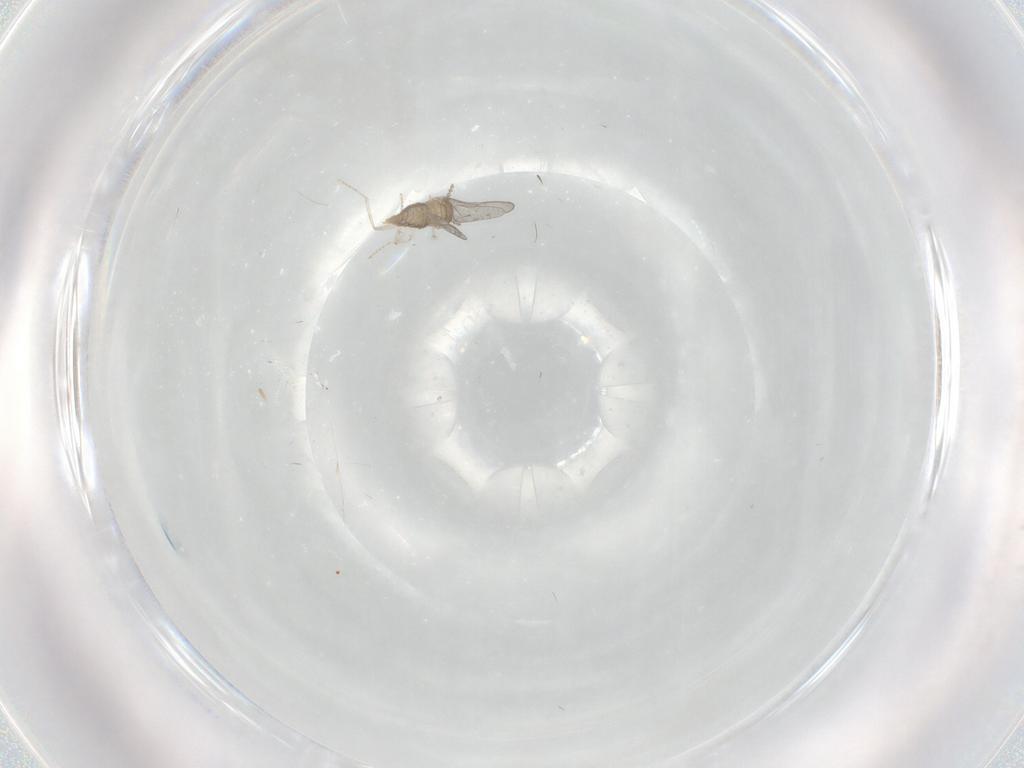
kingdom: Animalia
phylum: Arthropoda
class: Insecta
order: Diptera
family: Cecidomyiidae
